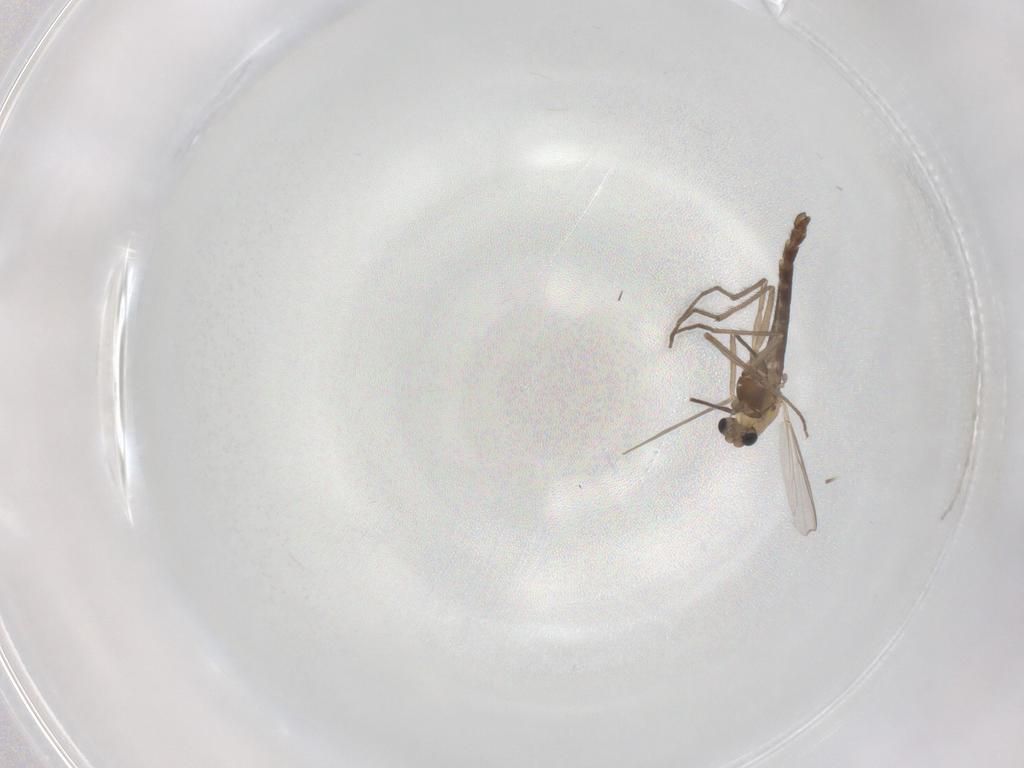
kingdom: Animalia
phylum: Arthropoda
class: Insecta
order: Diptera
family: Chironomidae
